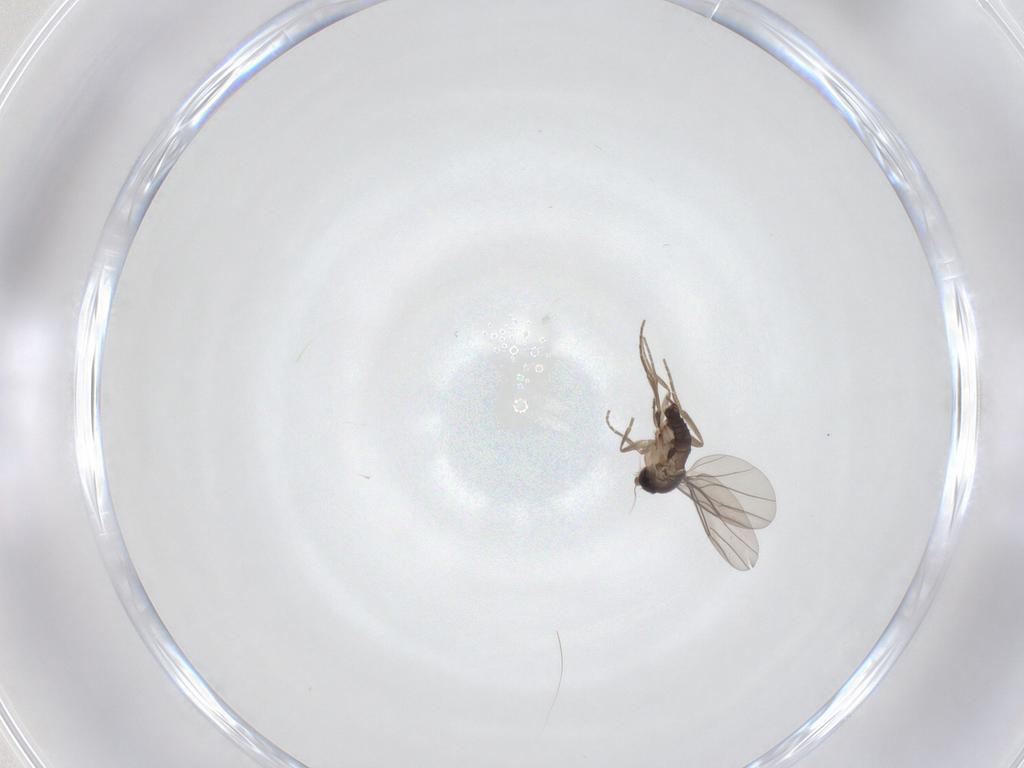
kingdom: Animalia
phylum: Arthropoda
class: Insecta
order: Diptera
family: Phoridae
